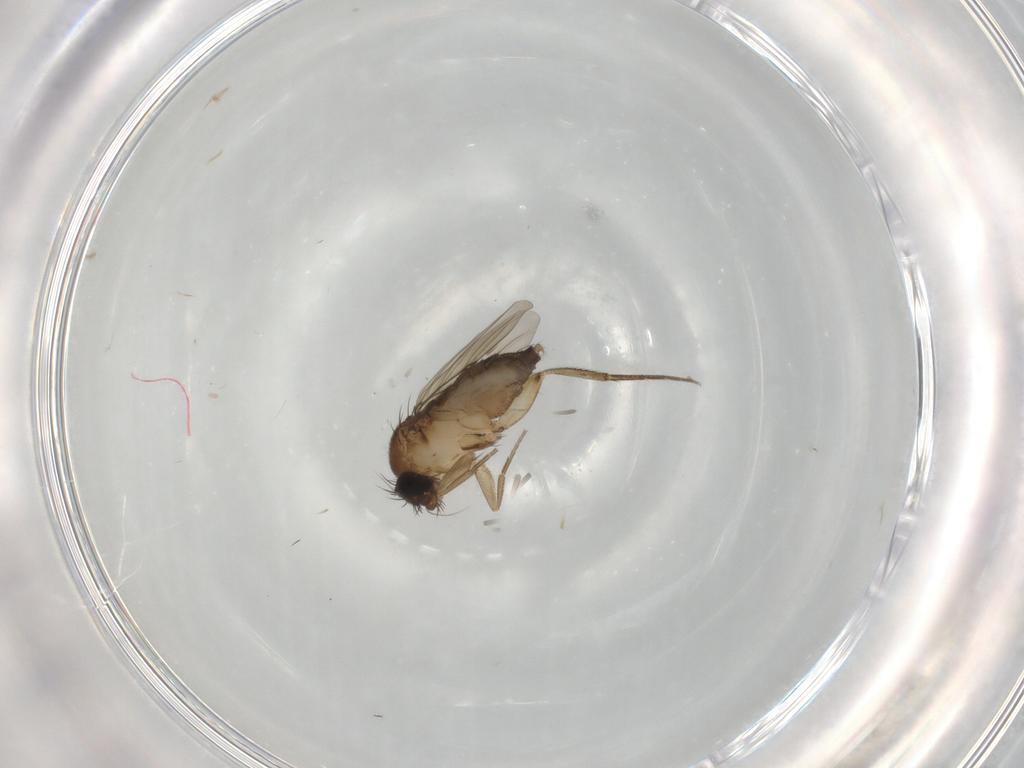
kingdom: Animalia
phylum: Arthropoda
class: Insecta
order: Diptera
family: Phoridae
